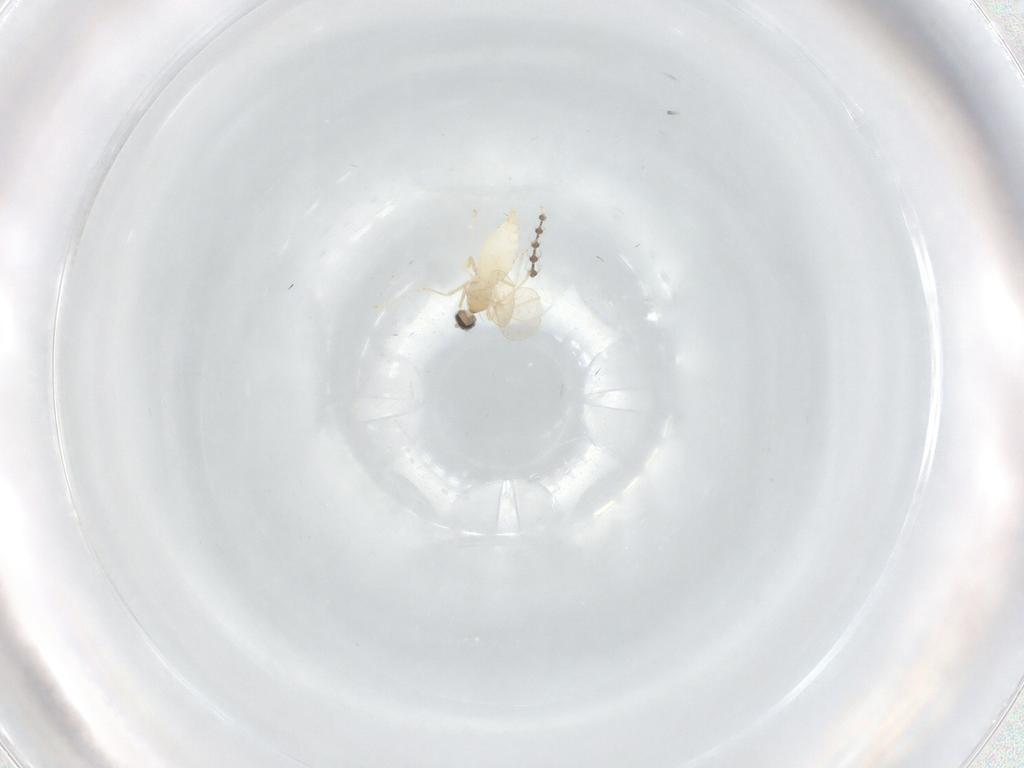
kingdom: Animalia
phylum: Arthropoda
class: Insecta
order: Diptera
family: Cecidomyiidae
